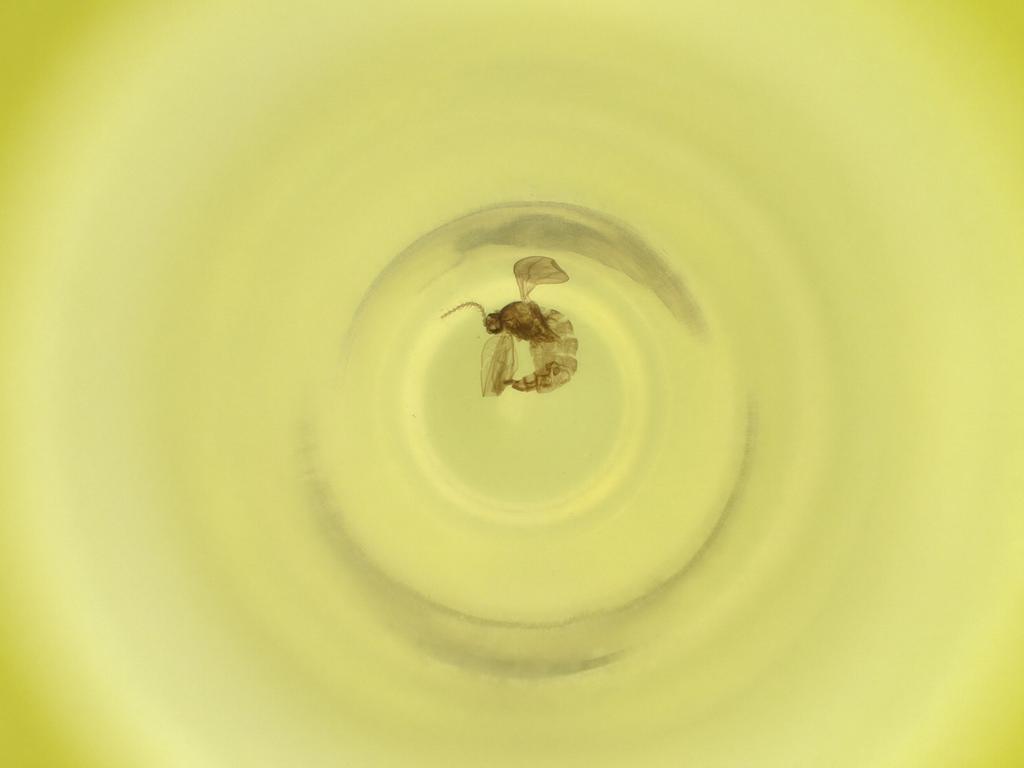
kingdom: Animalia
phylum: Arthropoda
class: Insecta
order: Diptera
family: Cecidomyiidae
